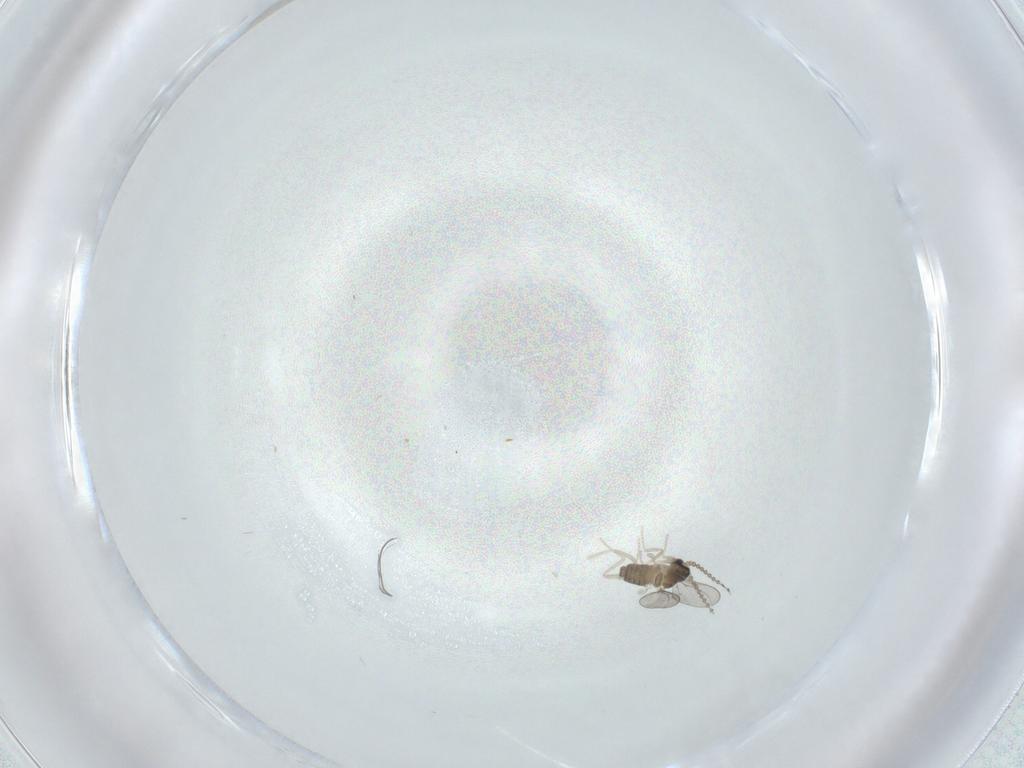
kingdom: Animalia
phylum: Arthropoda
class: Insecta
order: Diptera
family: Cecidomyiidae
